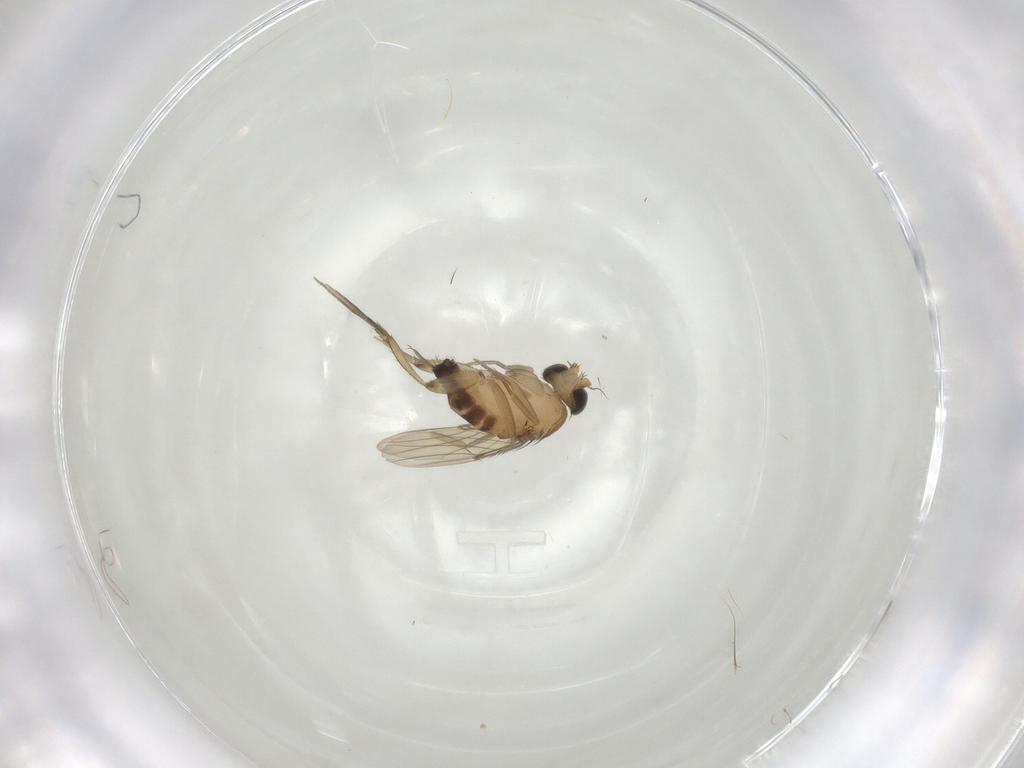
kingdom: Animalia
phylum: Arthropoda
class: Insecta
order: Diptera
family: Phoridae
